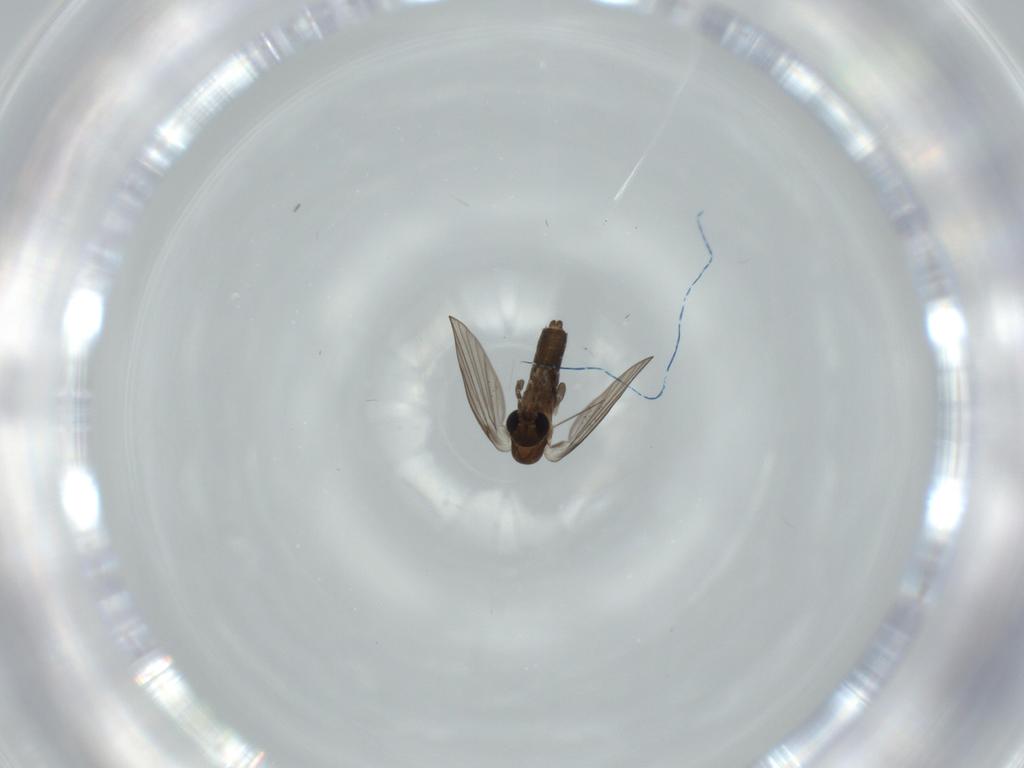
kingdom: Animalia
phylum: Arthropoda
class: Insecta
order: Diptera
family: Psychodidae
